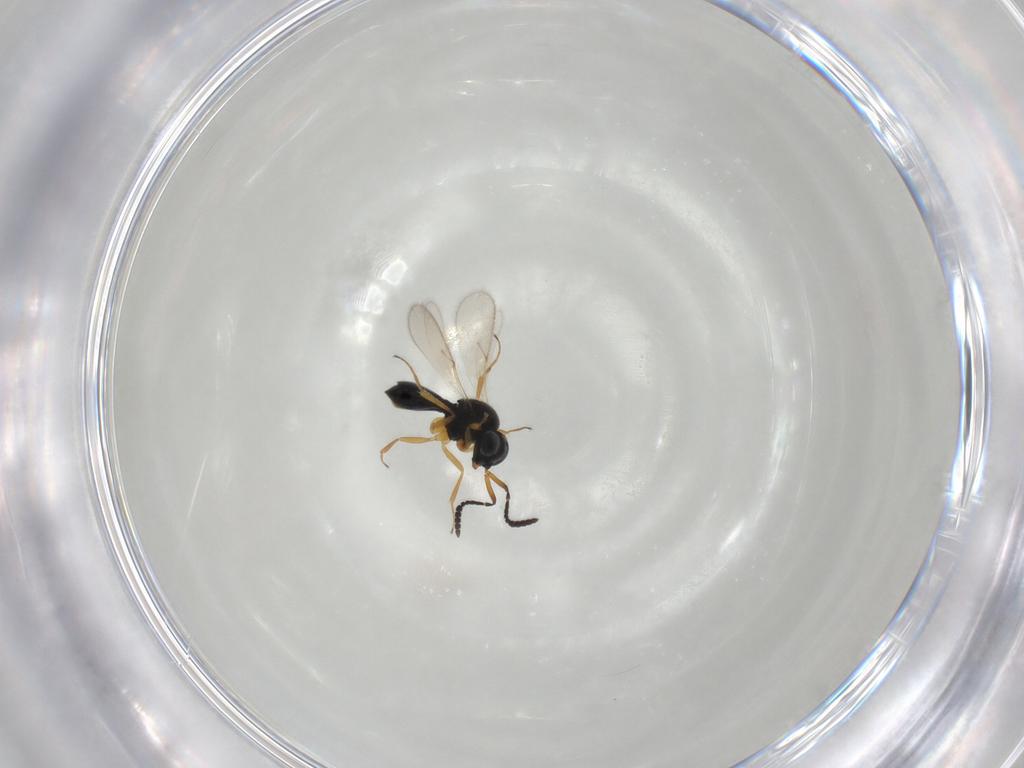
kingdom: Animalia
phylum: Arthropoda
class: Insecta
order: Hymenoptera
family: Scelionidae
